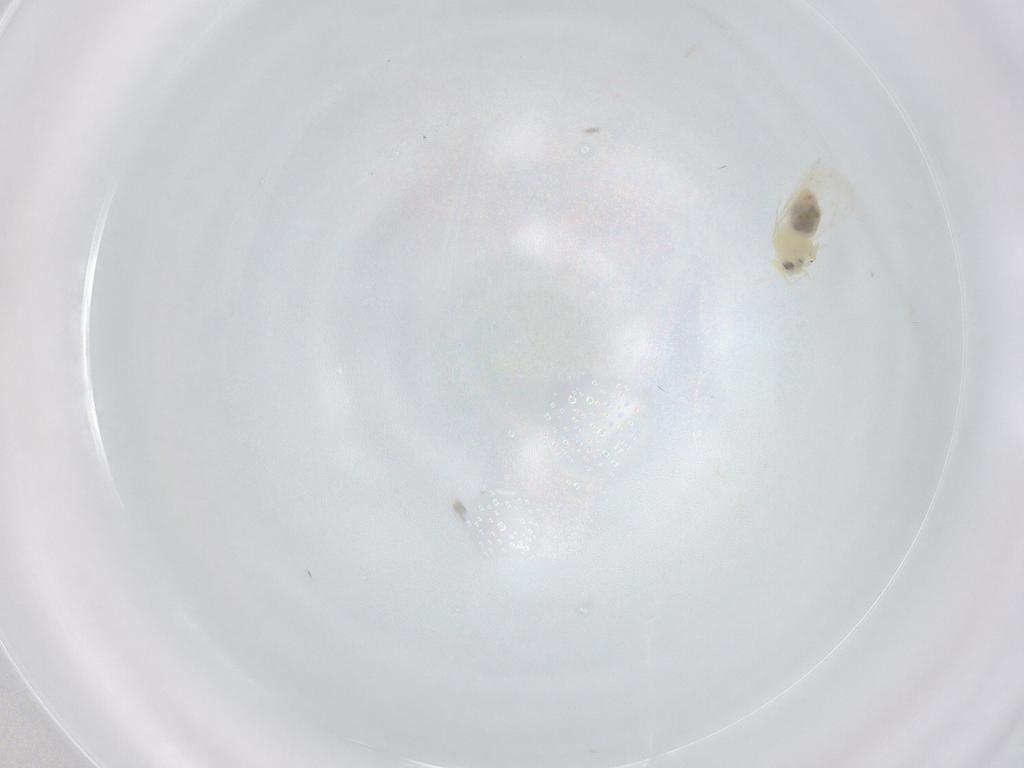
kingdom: Animalia
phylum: Arthropoda
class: Insecta
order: Hemiptera
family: Aleyrodidae
